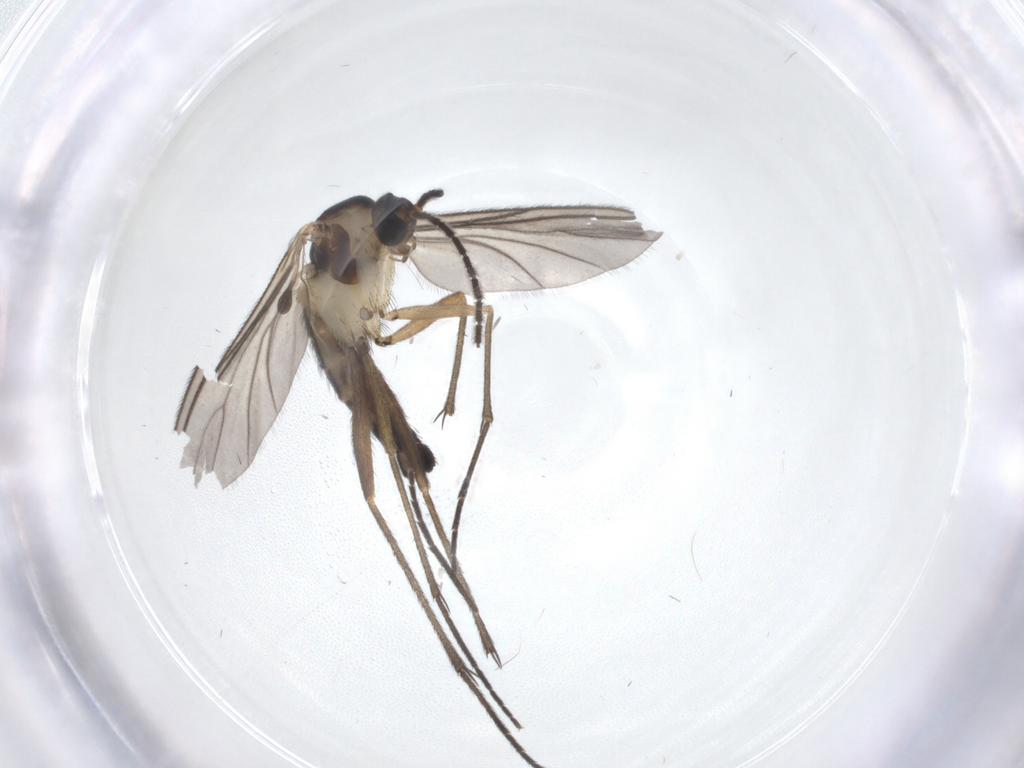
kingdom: Animalia
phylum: Arthropoda
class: Insecta
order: Diptera
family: Sciaridae
